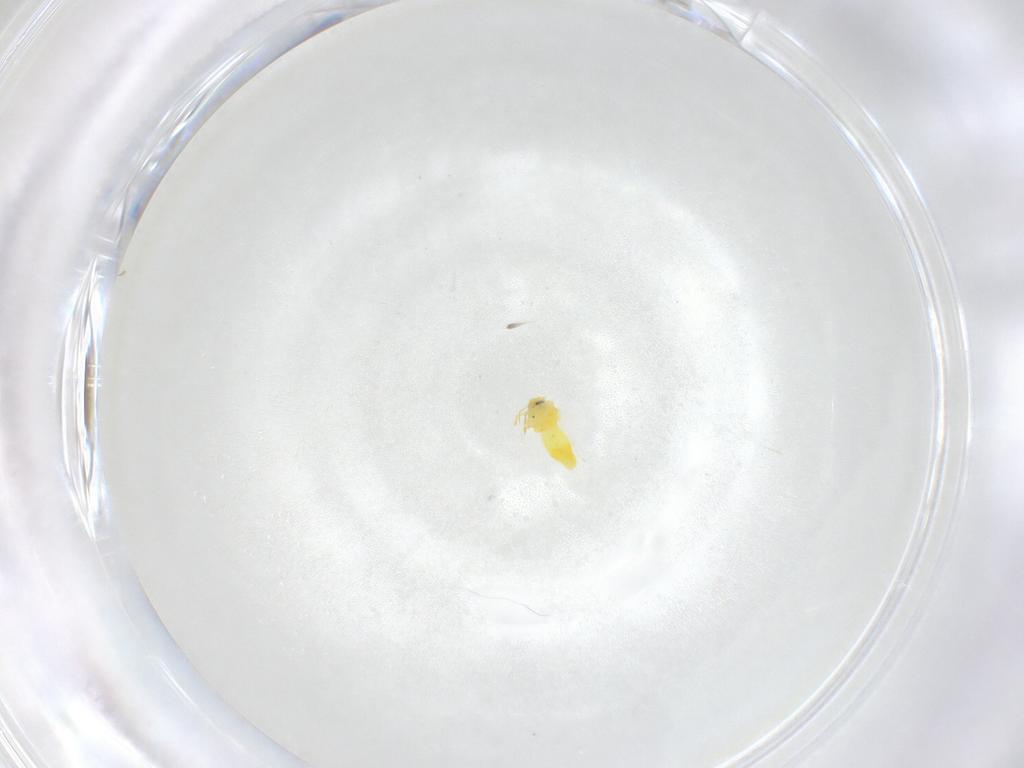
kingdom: Animalia
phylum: Arthropoda
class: Insecta
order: Hemiptera
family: Aleyrodidae
